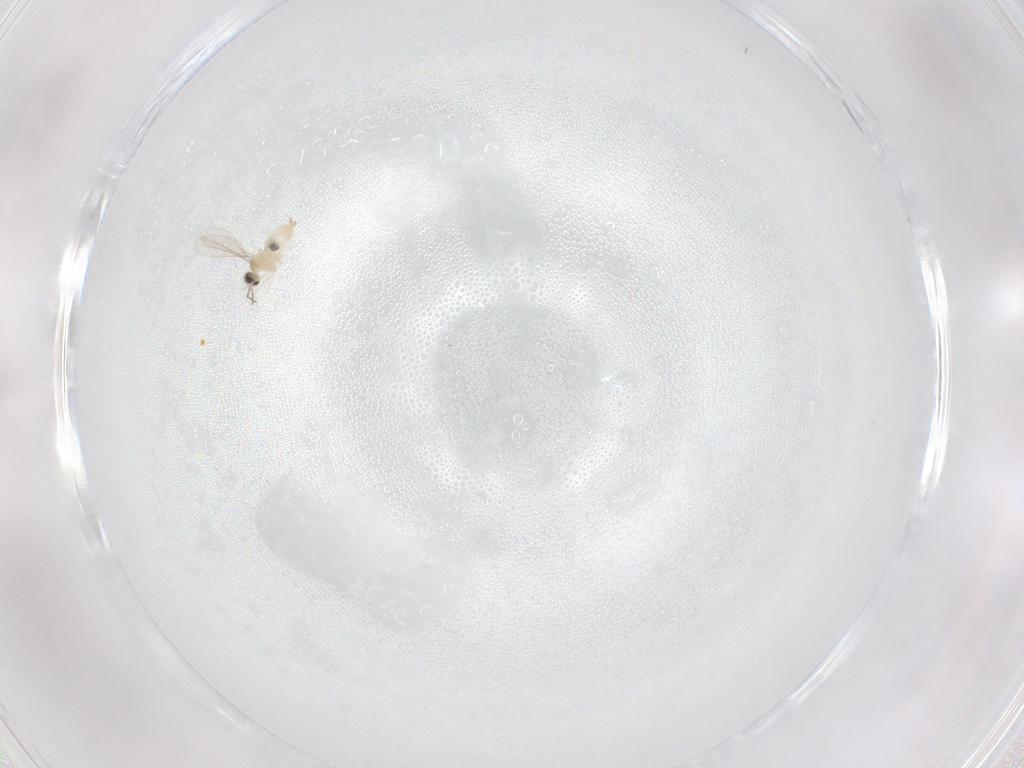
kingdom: Animalia
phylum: Arthropoda
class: Insecta
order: Diptera
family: Cecidomyiidae
